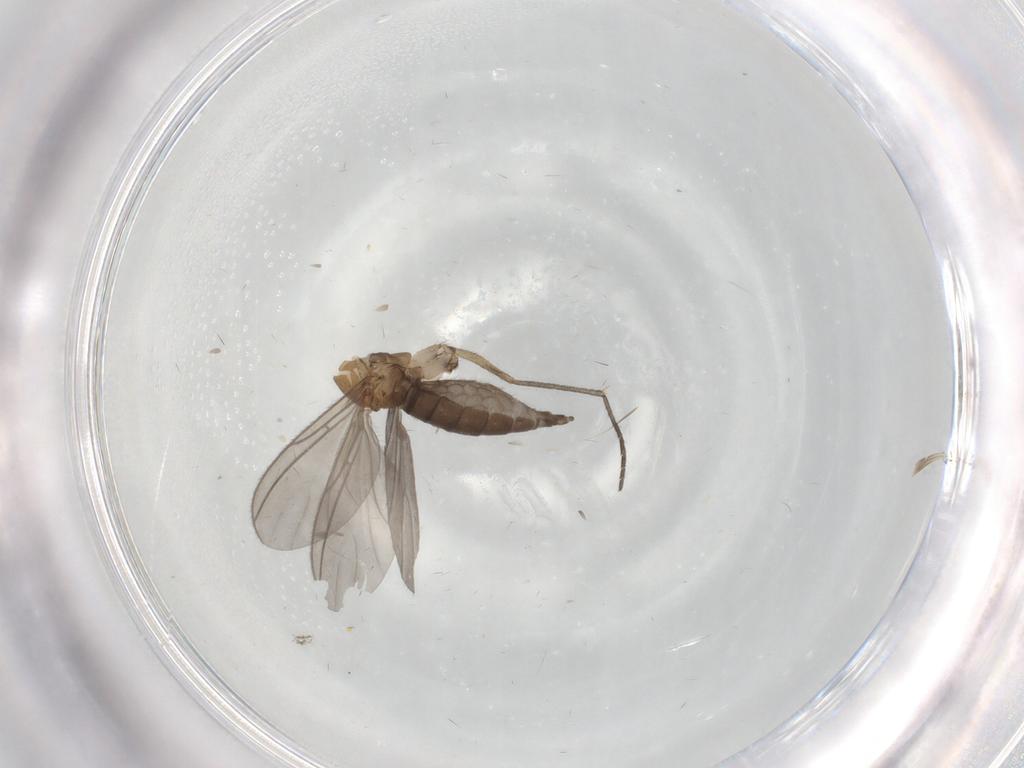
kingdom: Animalia
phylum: Arthropoda
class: Insecta
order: Diptera
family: Sciaridae
